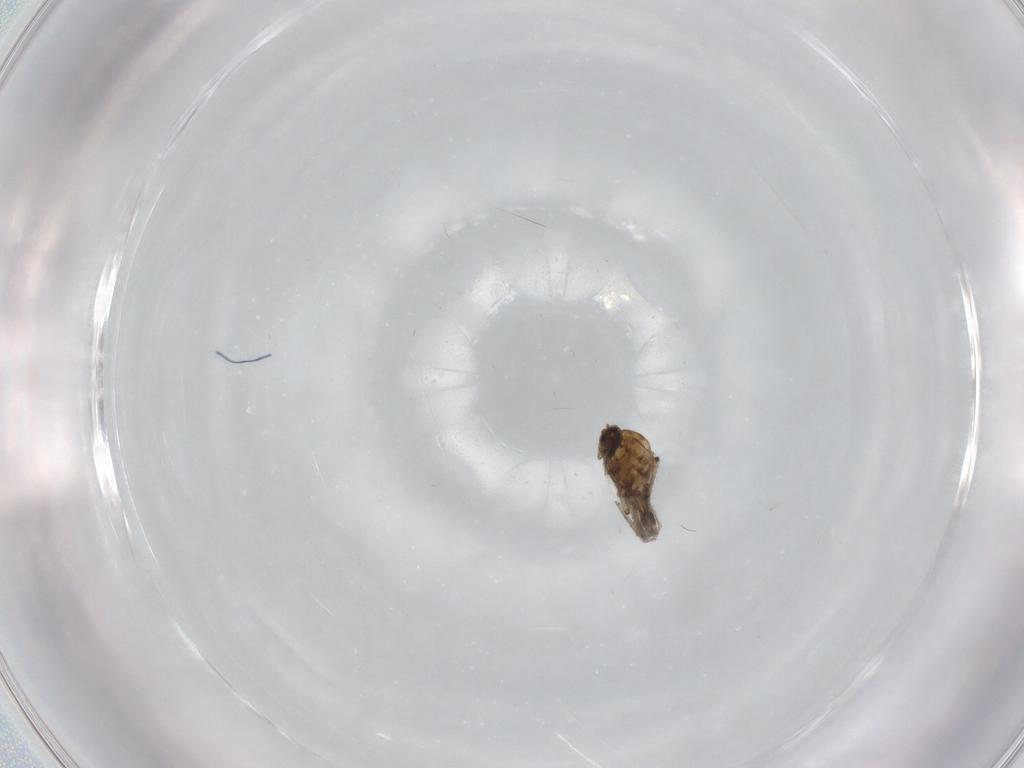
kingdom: Animalia
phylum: Arthropoda
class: Insecta
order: Diptera
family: Ceratopogonidae
